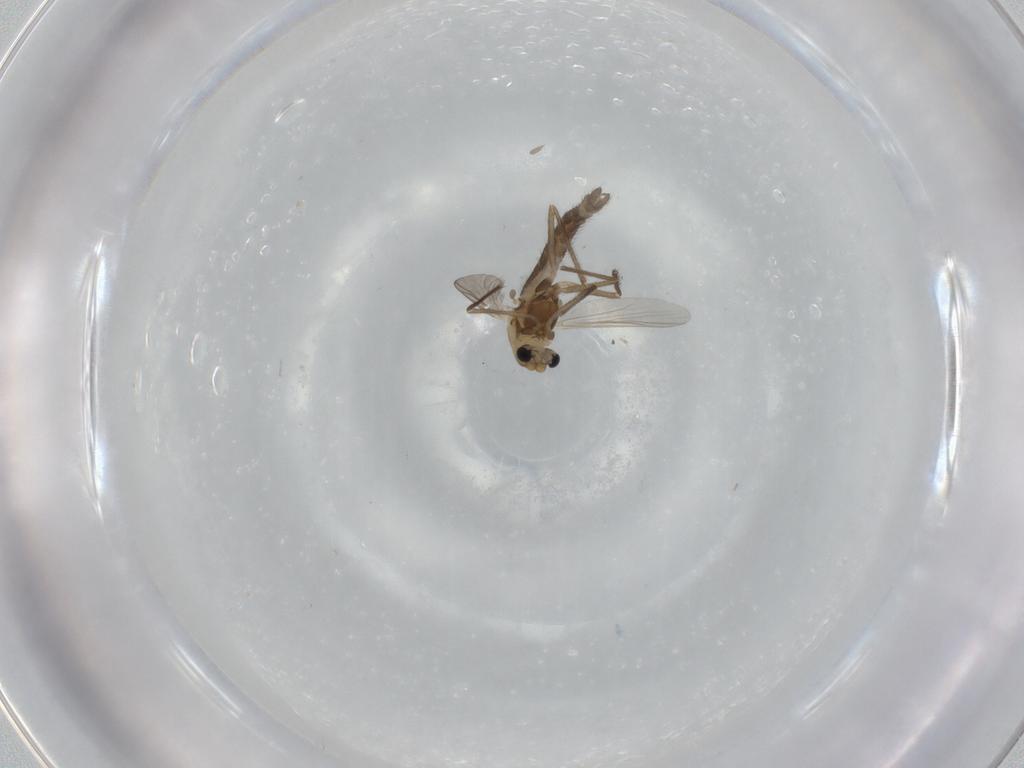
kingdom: Animalia
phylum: Arthropoda
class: Insecta
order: Diptera
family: Chironomidae
